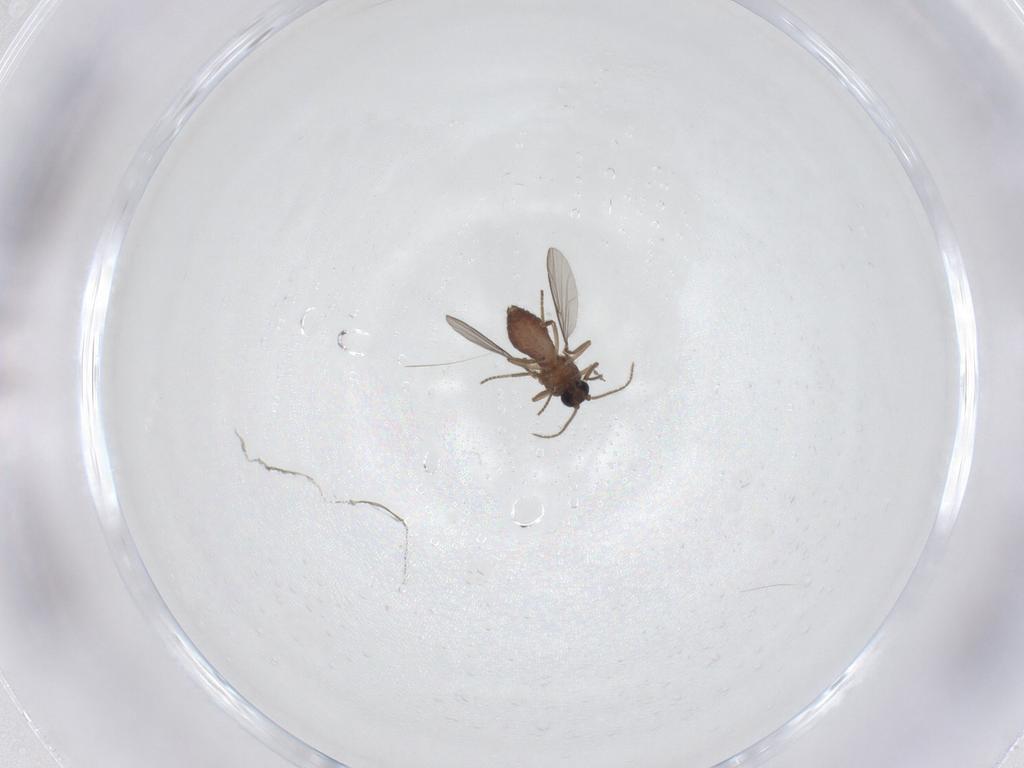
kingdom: Animalia
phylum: Arthropoda
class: Insecta
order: Diptera
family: Ceratopogonidae
